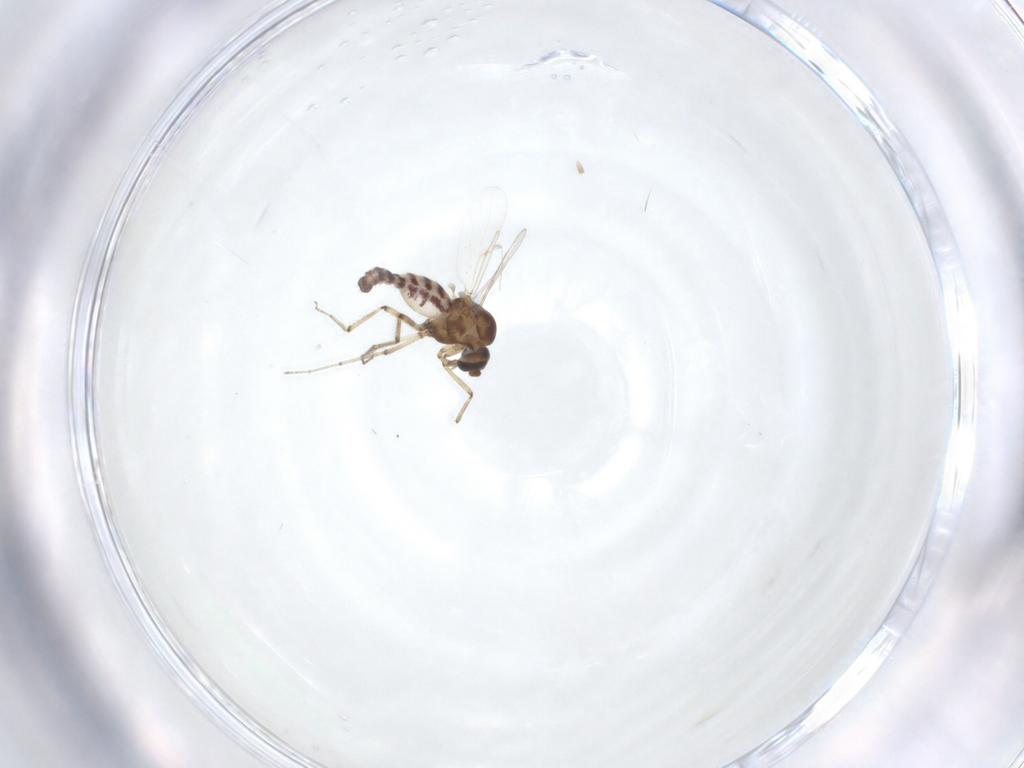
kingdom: Animalia
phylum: Arthropoda
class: Insecta
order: Diptera
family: Ceratopogonidae
